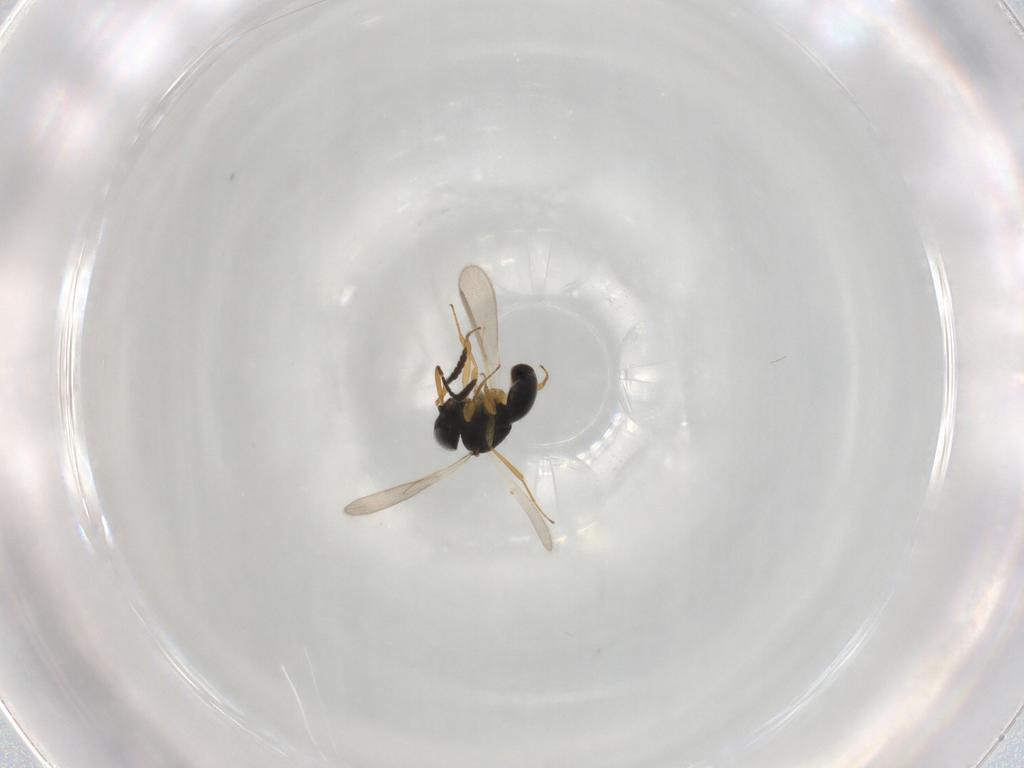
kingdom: Animalia
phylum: Arthropoda
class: Insecta
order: Hymenoptera
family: Scelionidae
